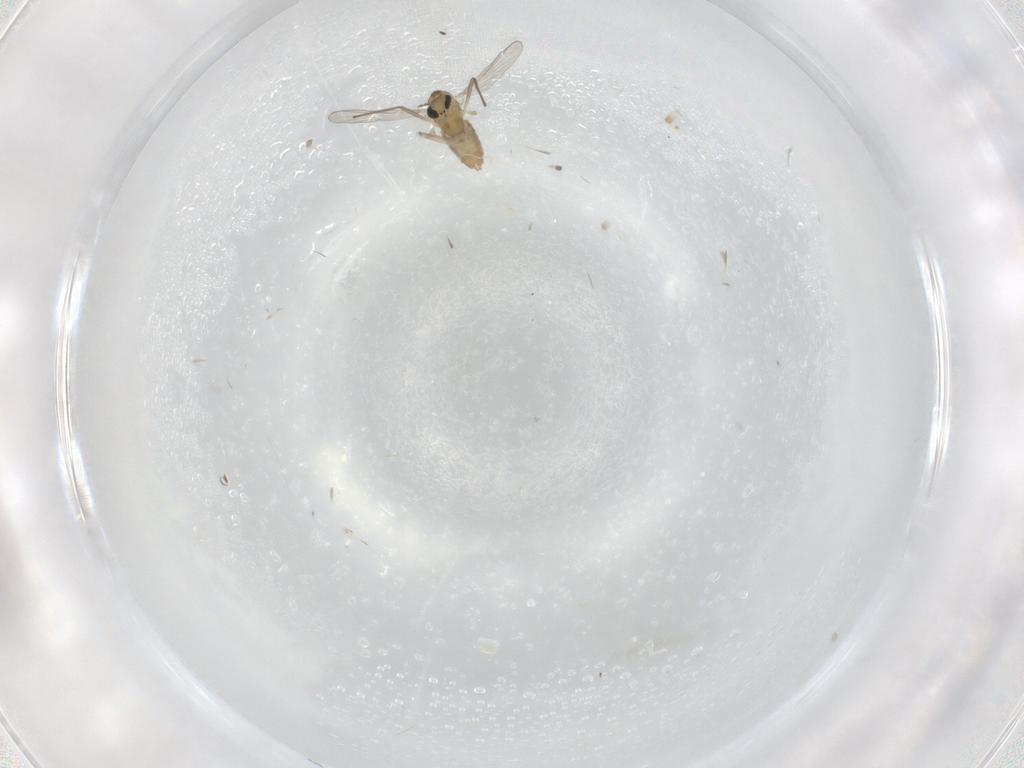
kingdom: Animalia
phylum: Arthropoda
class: Insecta
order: Diptera
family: Chironomidae
